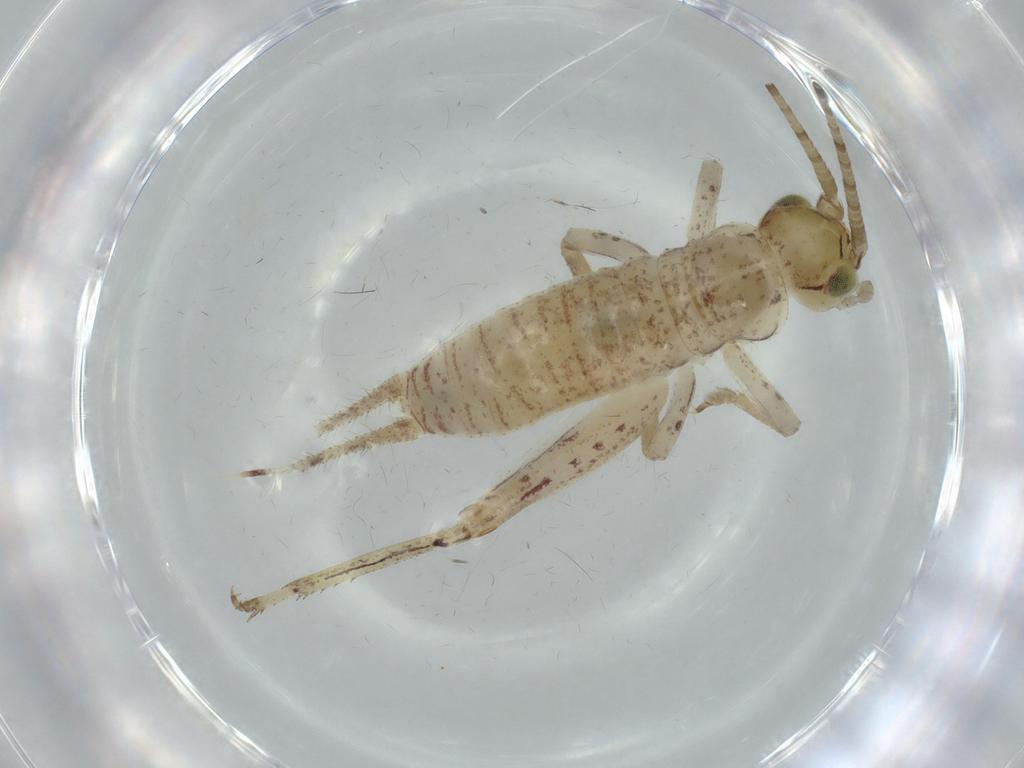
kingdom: Animalia
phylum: Arthropoda
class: Insecta
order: Orthoptera
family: Gryllidae
